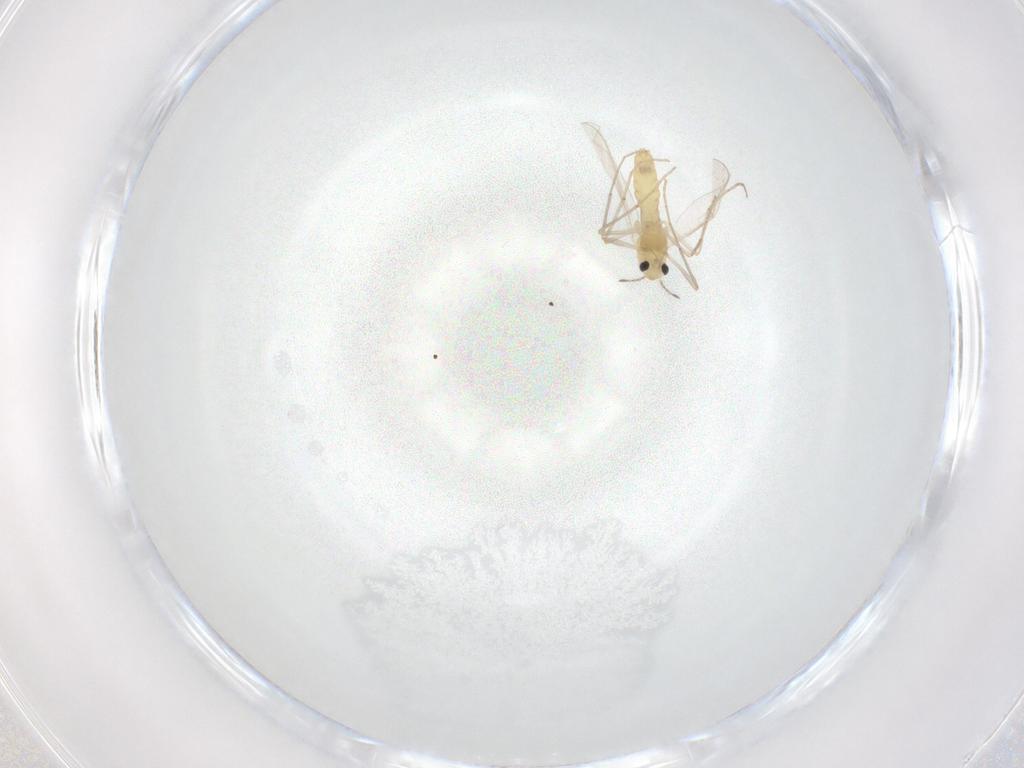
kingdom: Animalia
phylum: Arthropoda
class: Insecta
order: Diptera
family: Chironomidae
